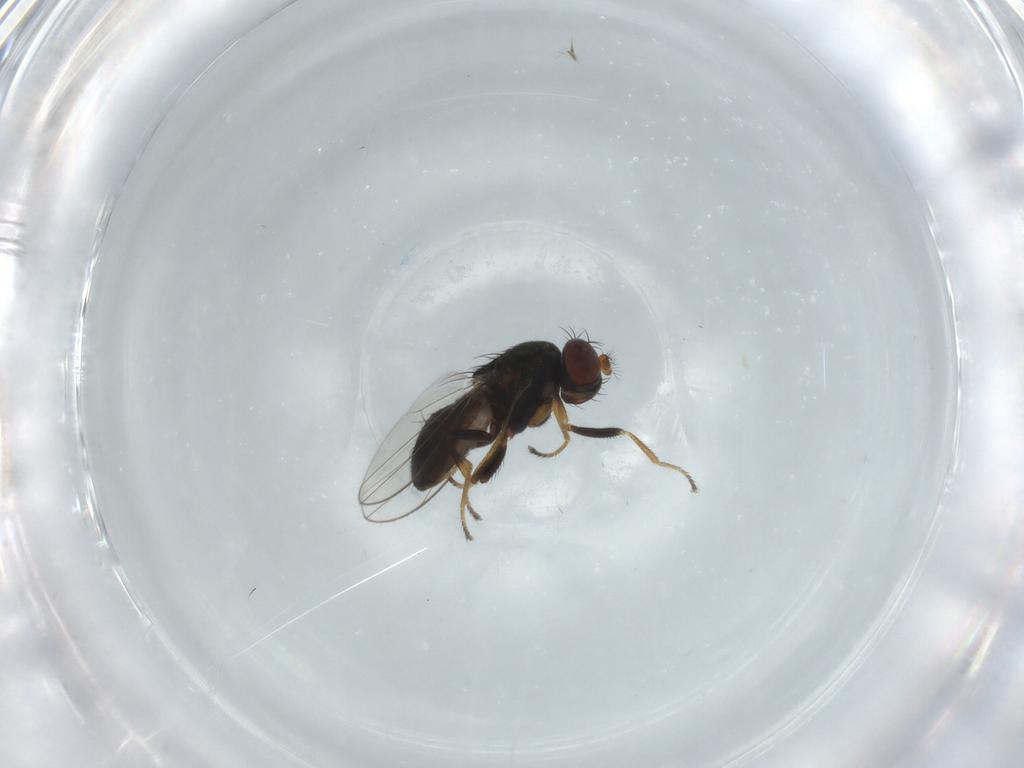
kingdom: Animalia
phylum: Arthropoda
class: Insecta
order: Diptera
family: Ephydridae
